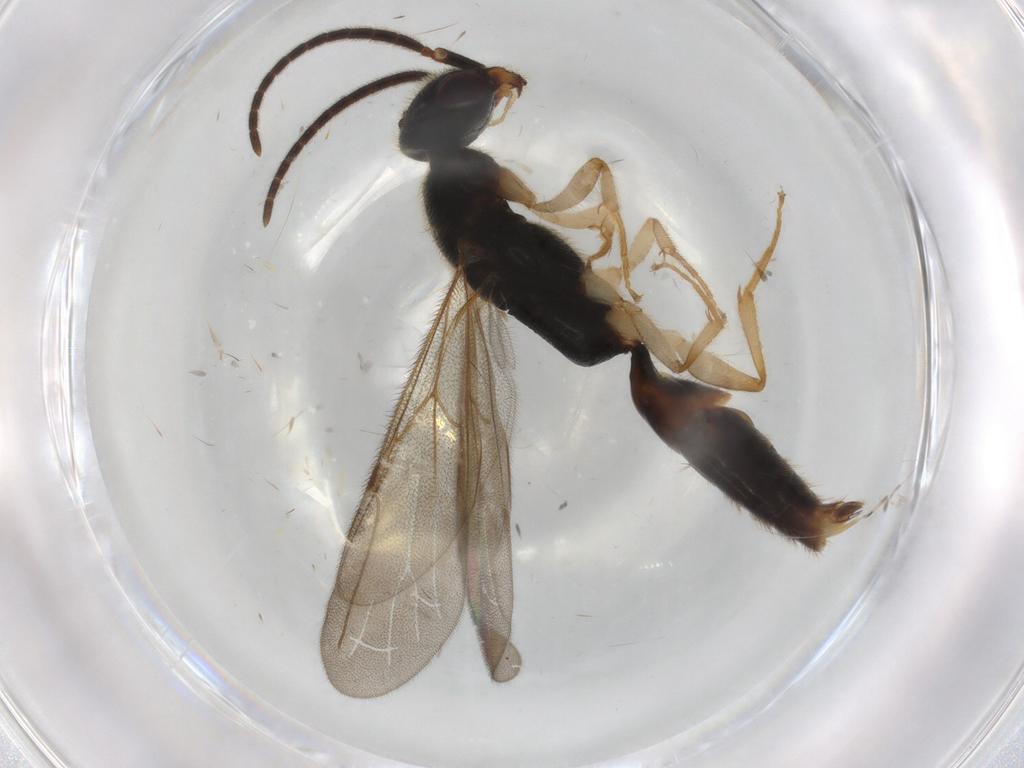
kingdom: Animalia
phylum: Arthropoda
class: Insecta
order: Hymenoptera
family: Bethylidae
